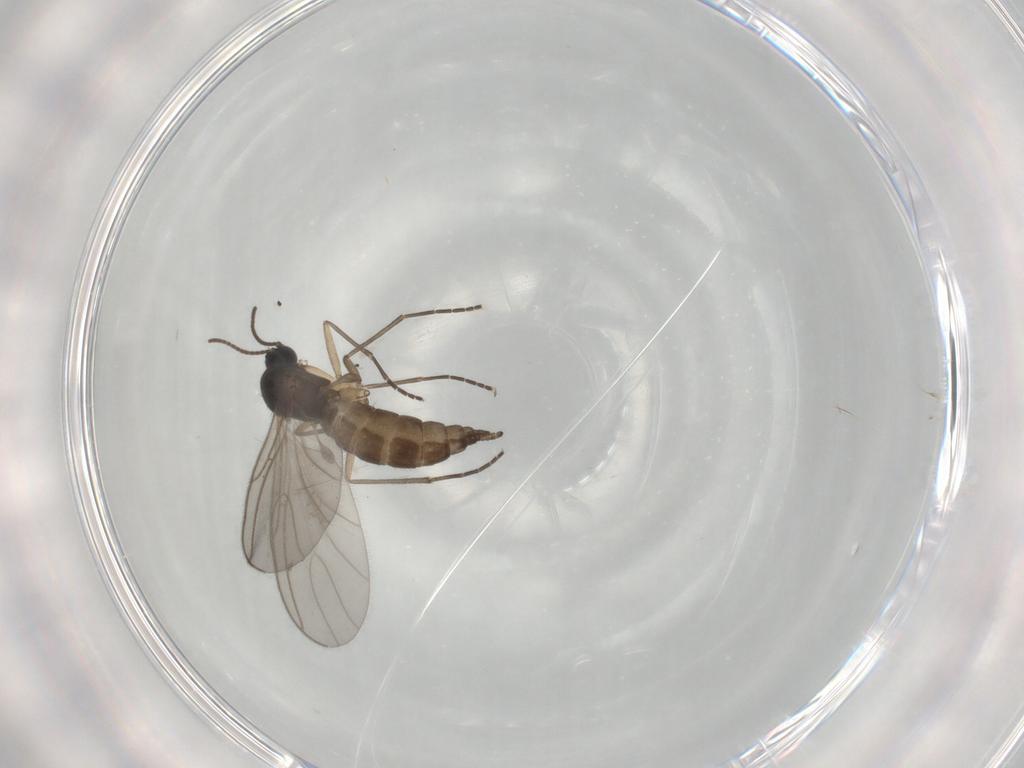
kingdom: Animalia
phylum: Arthropoda
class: Insecta
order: Diptera
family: Sciaridae
